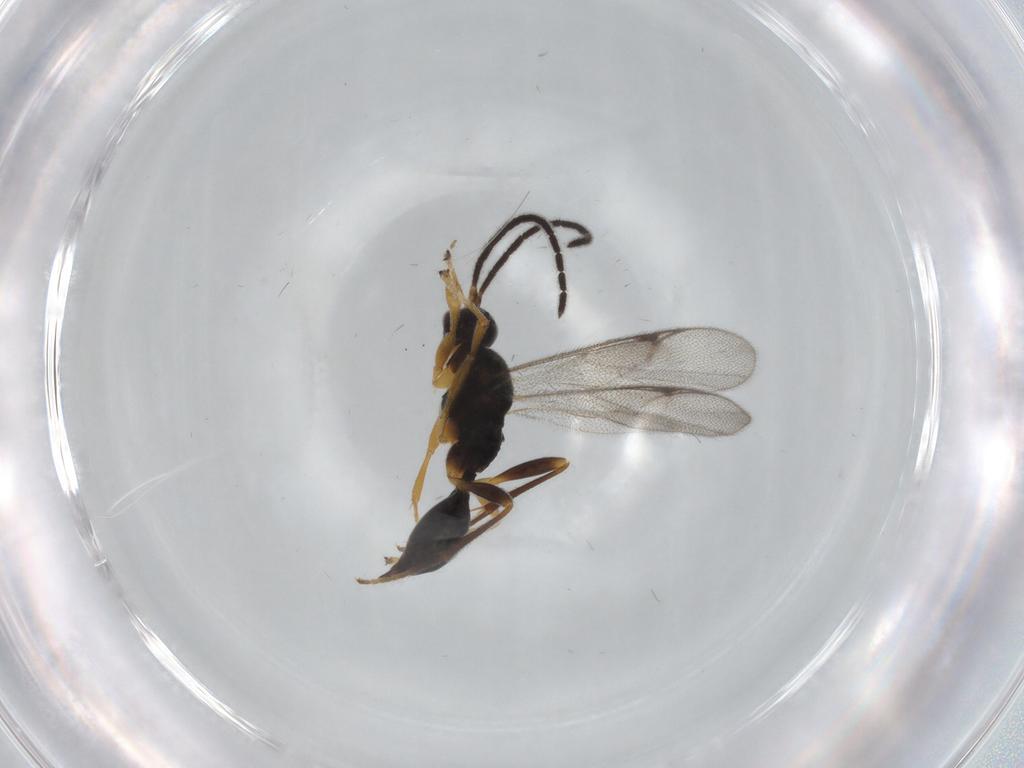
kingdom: Animalia
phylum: Arthropoda
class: Insecta
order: Hymenoptera
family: Proctotrupidae
